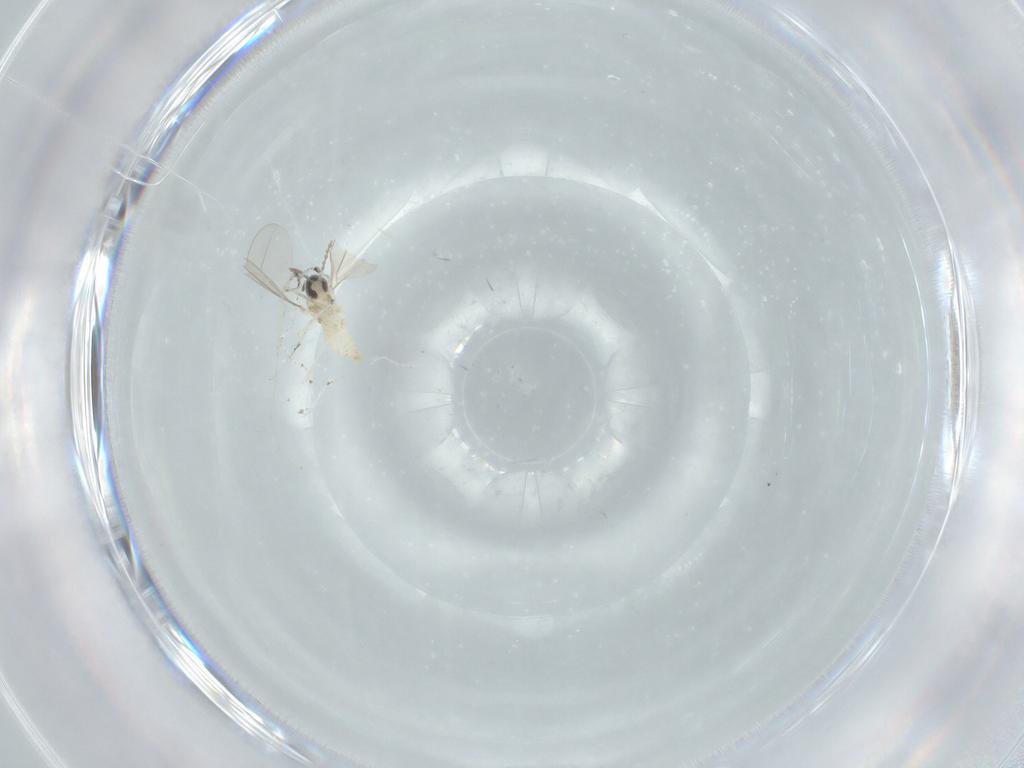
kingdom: Animalia
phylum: Arthropoda
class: Insecta
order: Diptera
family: Cecidomyiidae
